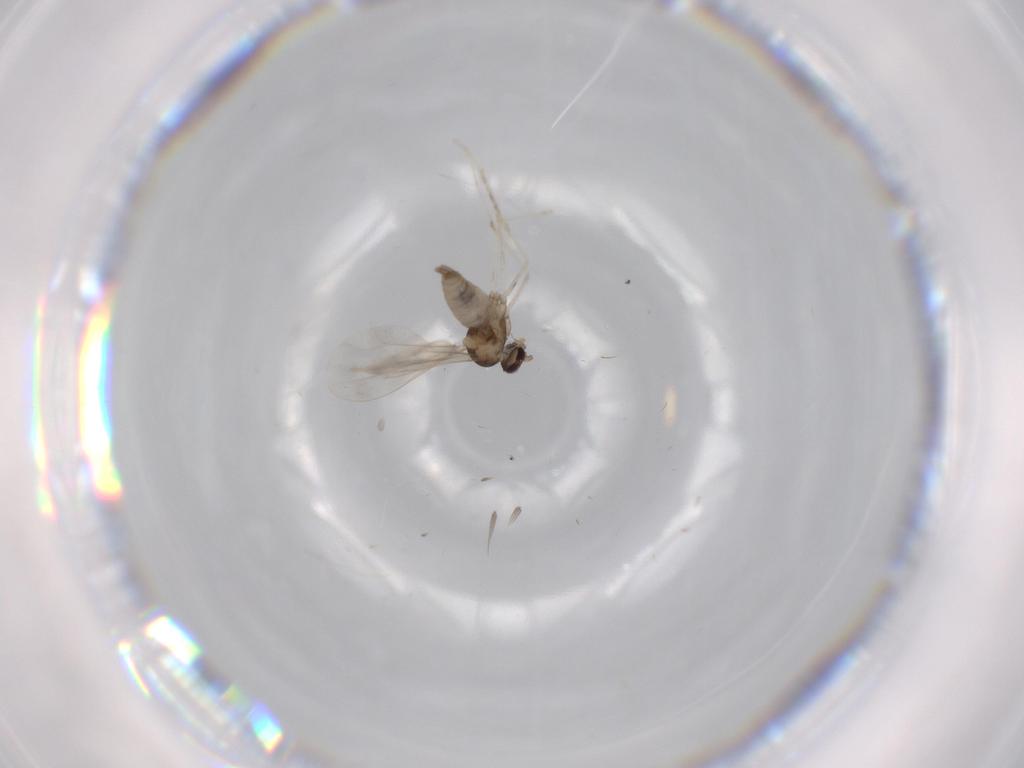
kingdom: Animalia
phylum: Arthropoda
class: Insecta
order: Diptera
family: Cecidomyiidae
